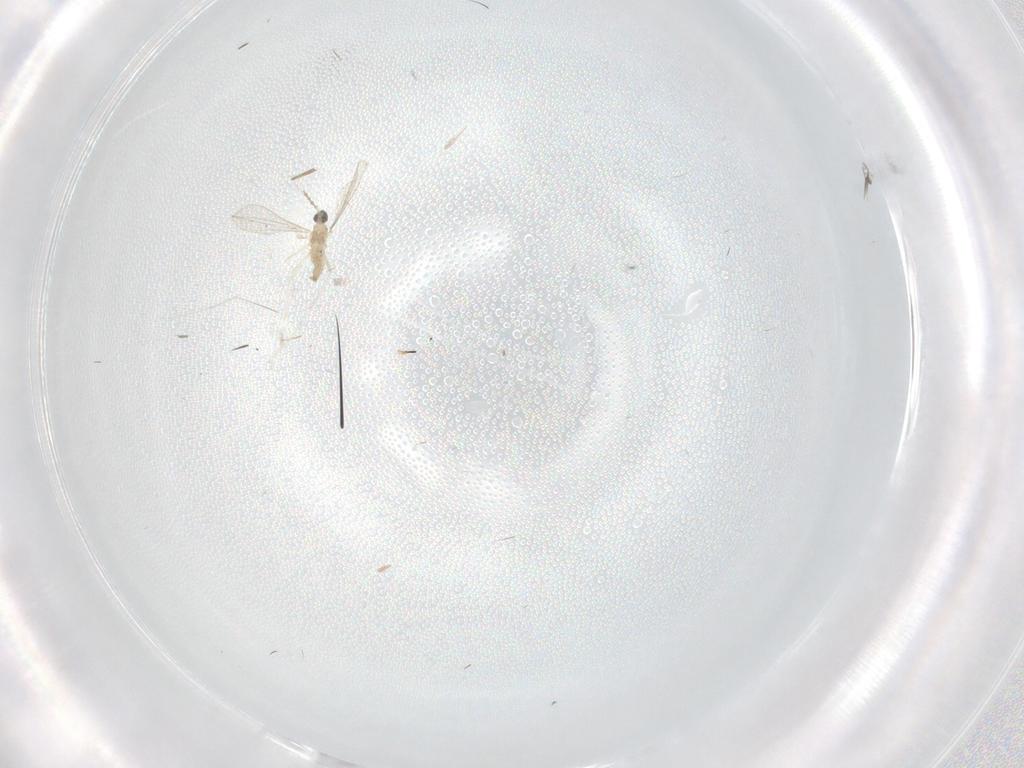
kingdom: Animalia
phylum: Arthropoda
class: Insecta
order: Diptera
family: Cecidomyiidae
